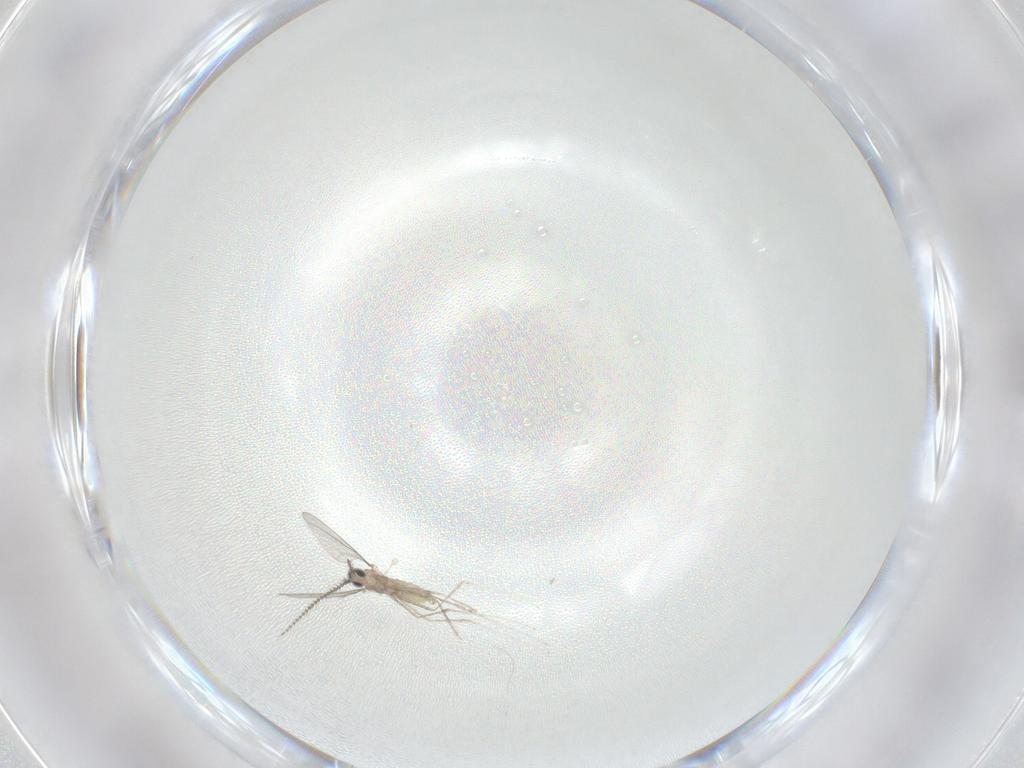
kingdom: Animalia
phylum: Arthropoda
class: Insecta
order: Diptera
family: Cecidomyiidae
